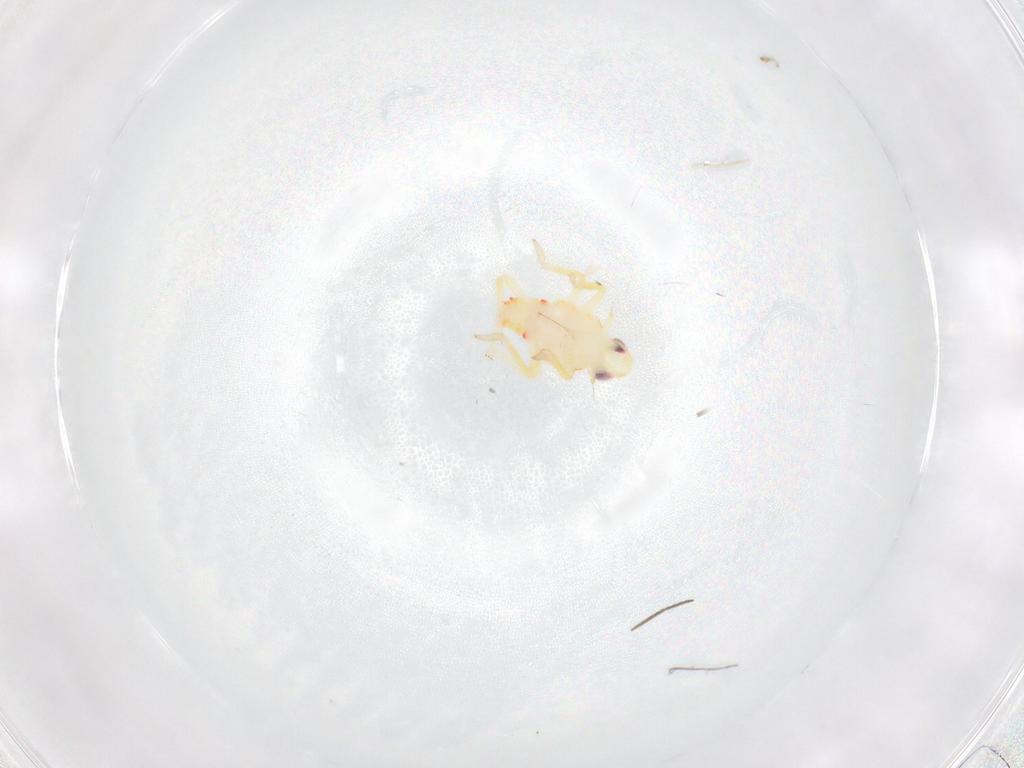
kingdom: Animalia
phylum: Arthropoda
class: Insecta
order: Hemiptera
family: Tropiduchidae
